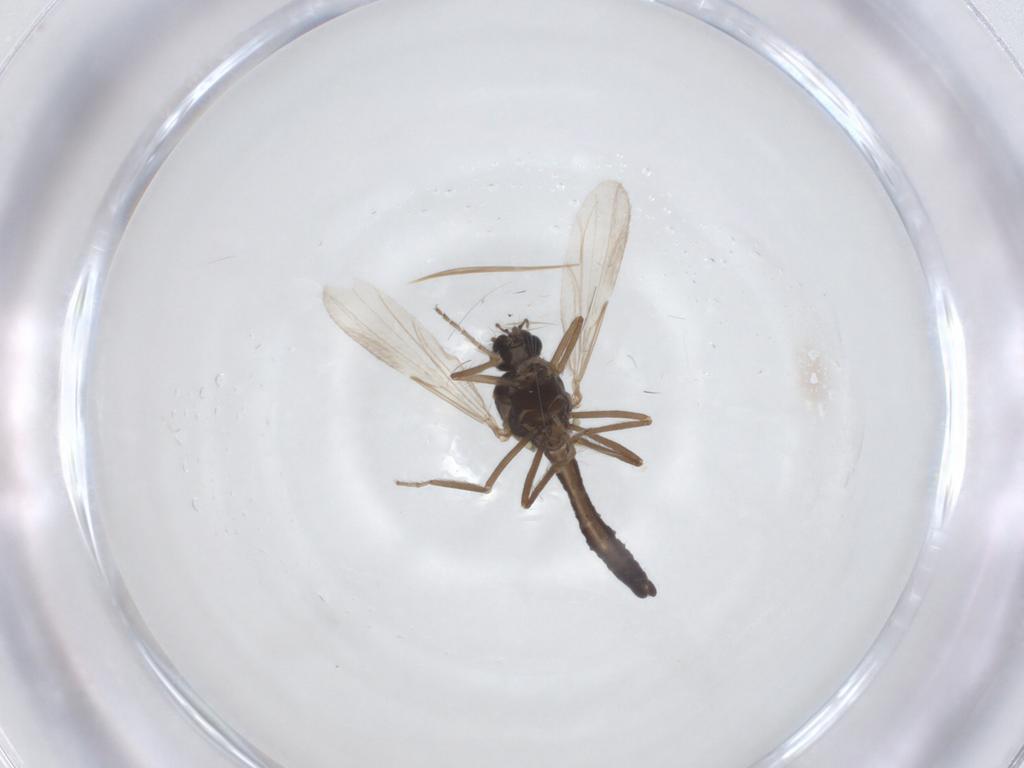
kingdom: Animalia
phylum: Arthropoda
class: Insecta
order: Diptera
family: Ceratopogonidae
